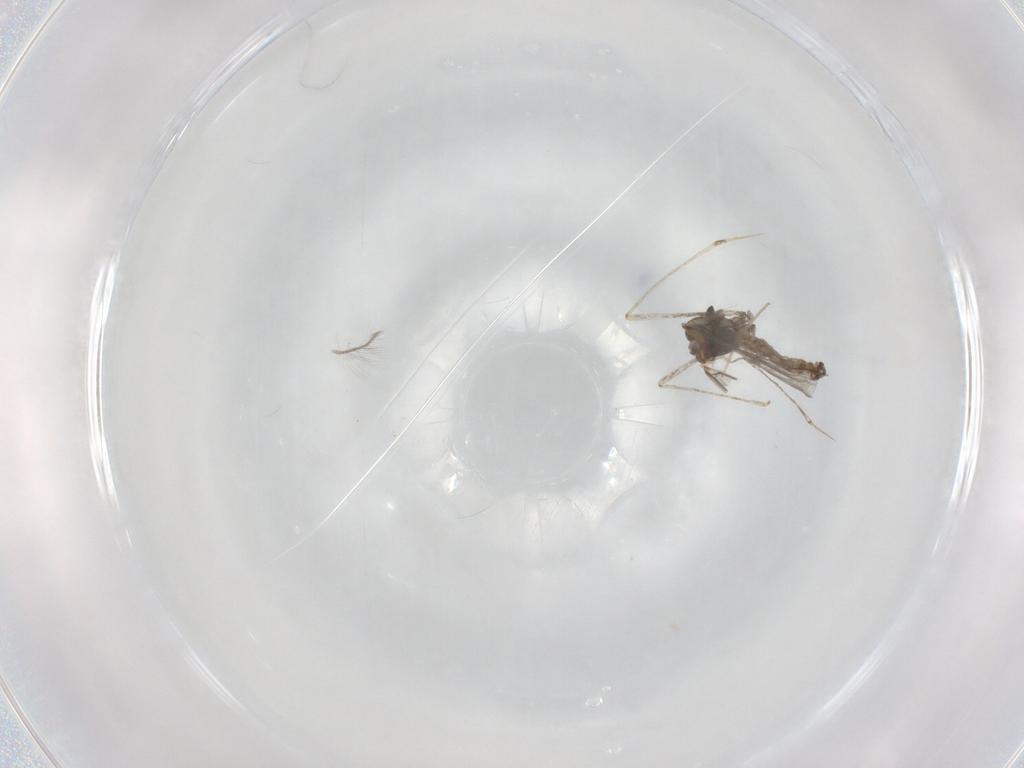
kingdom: Animalia
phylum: Arthropoda
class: Insecta
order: Diptera
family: Cecidomyiidae
